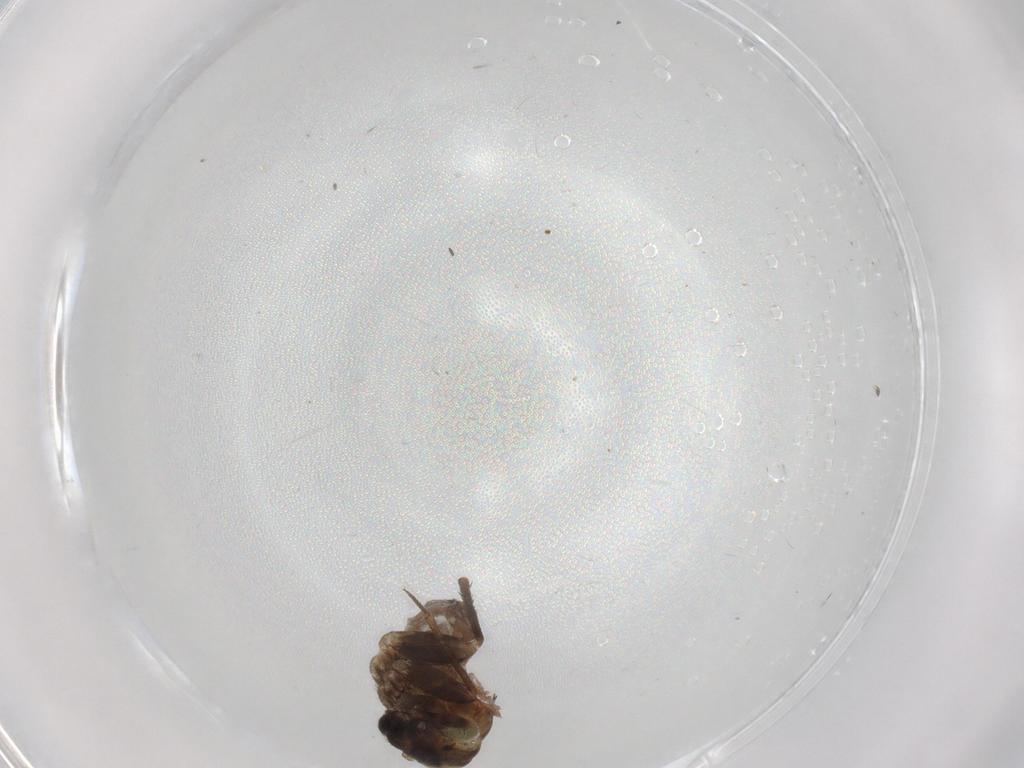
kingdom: Animalia
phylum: Arthropoda
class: Insecta
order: Psocodea
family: Lepidopsocidae
